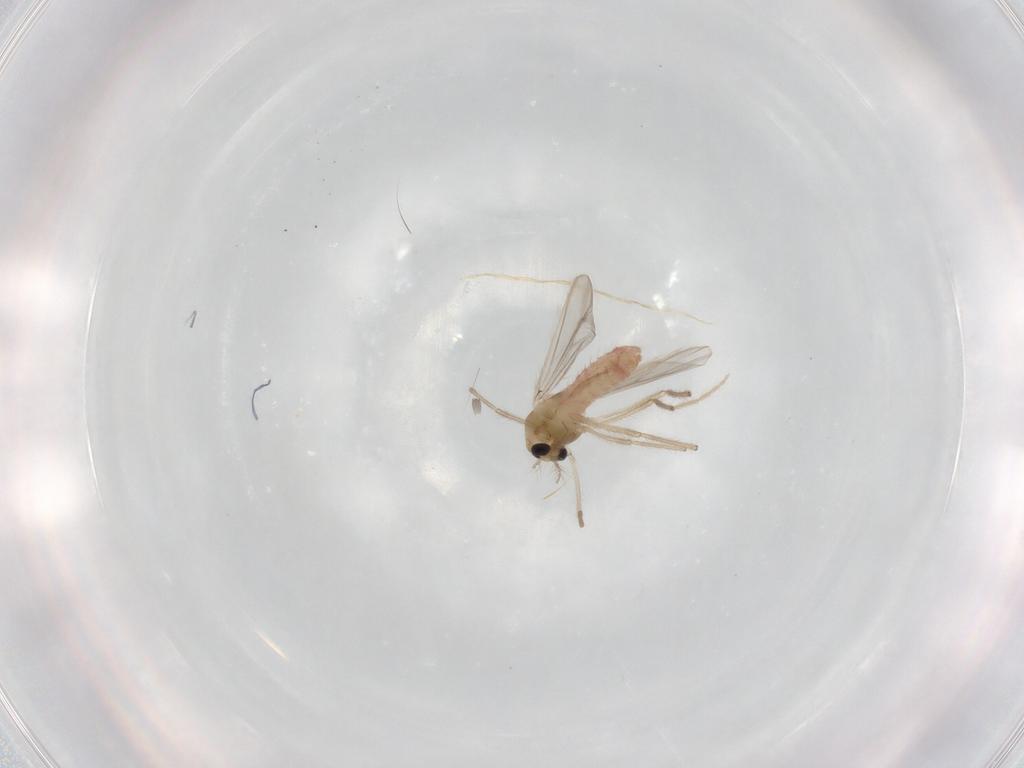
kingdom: Animalia
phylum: Arthropoda
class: Insecta
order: Diptera
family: Chironomidae
